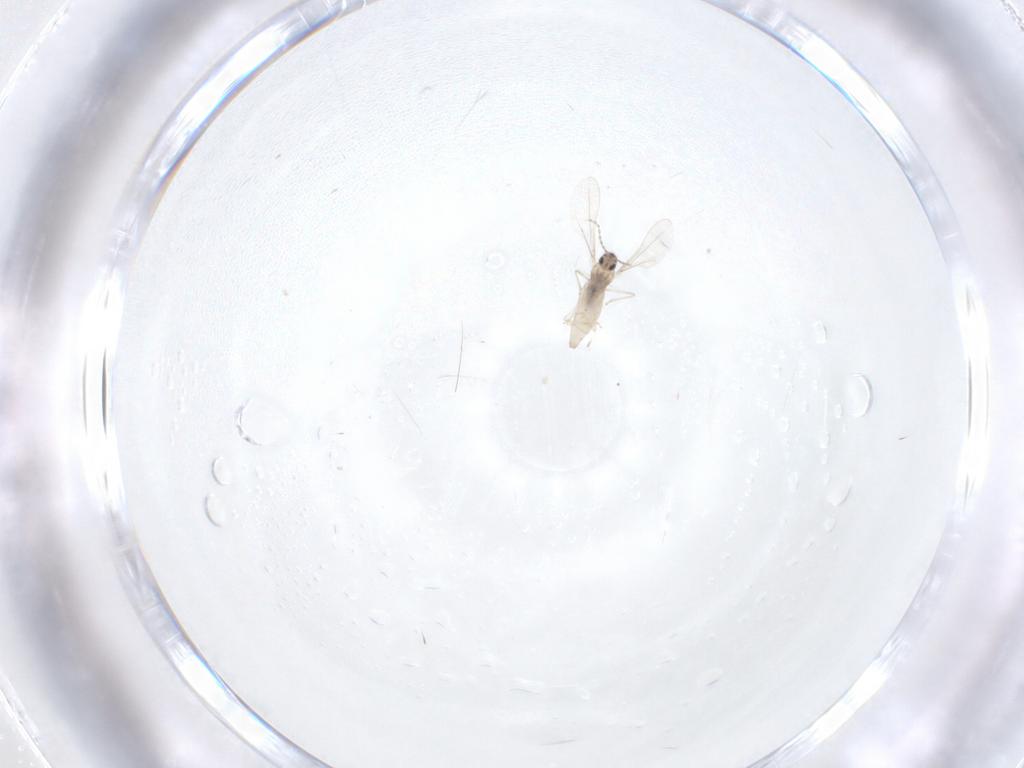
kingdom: Animalia
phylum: Arthropoda
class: Insecta
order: Diptera
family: Cecidomyiidae
